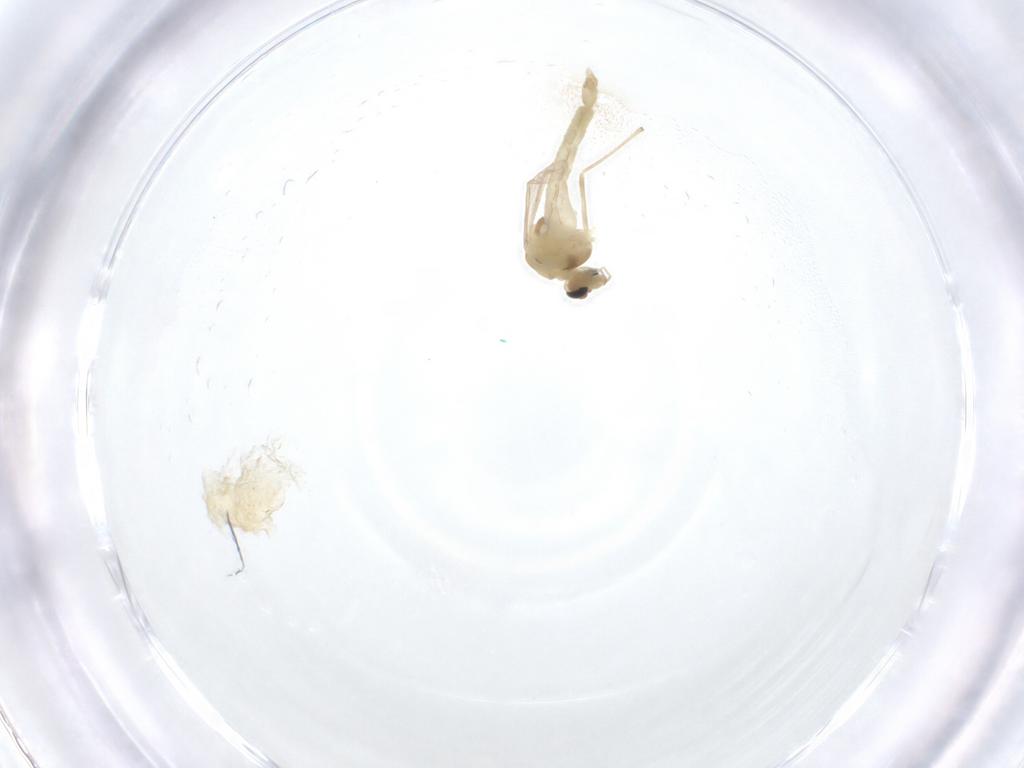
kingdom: Animalia
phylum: Arthropoda
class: Insecta
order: Diptera
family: Chironomidae
